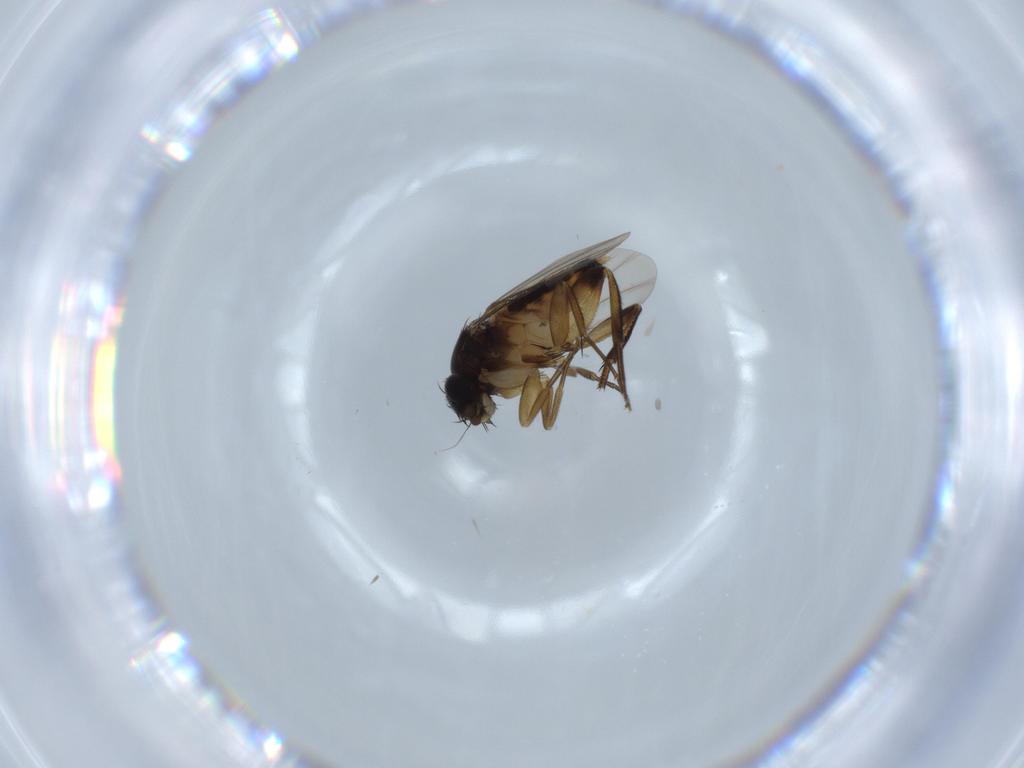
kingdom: Animalia
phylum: Arthropoda
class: Insecta
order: Diptera
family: Phoridae
